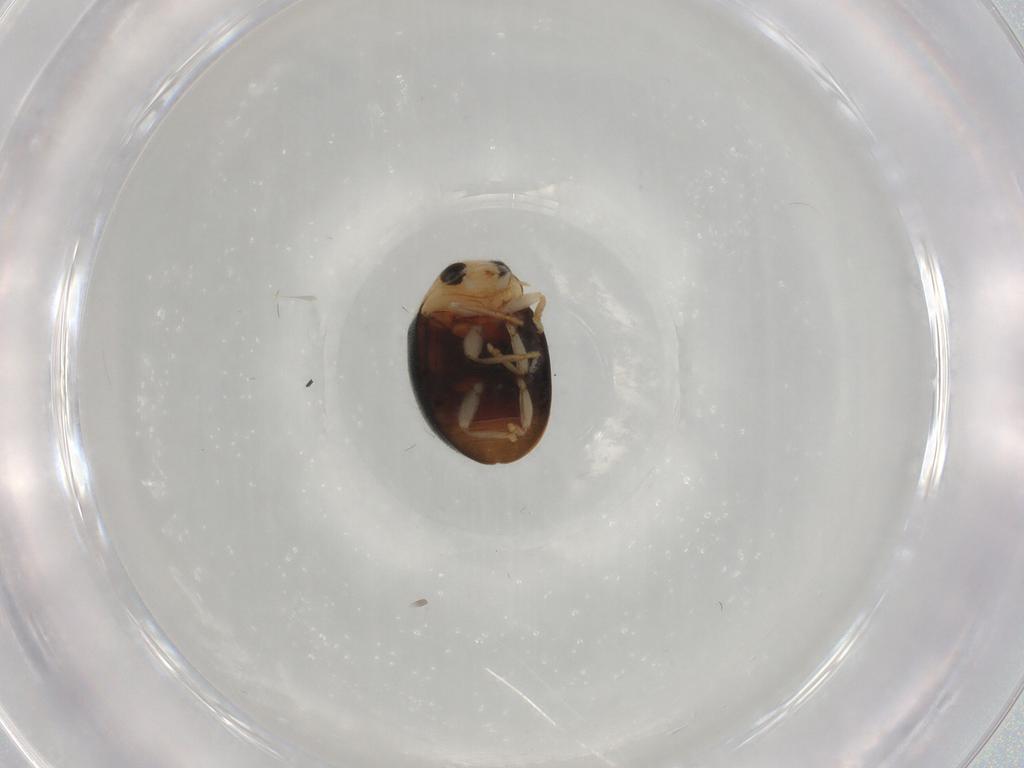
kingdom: Animalia
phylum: Arthropoda
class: Insecta
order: Coleoptera
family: Coccinellidae
